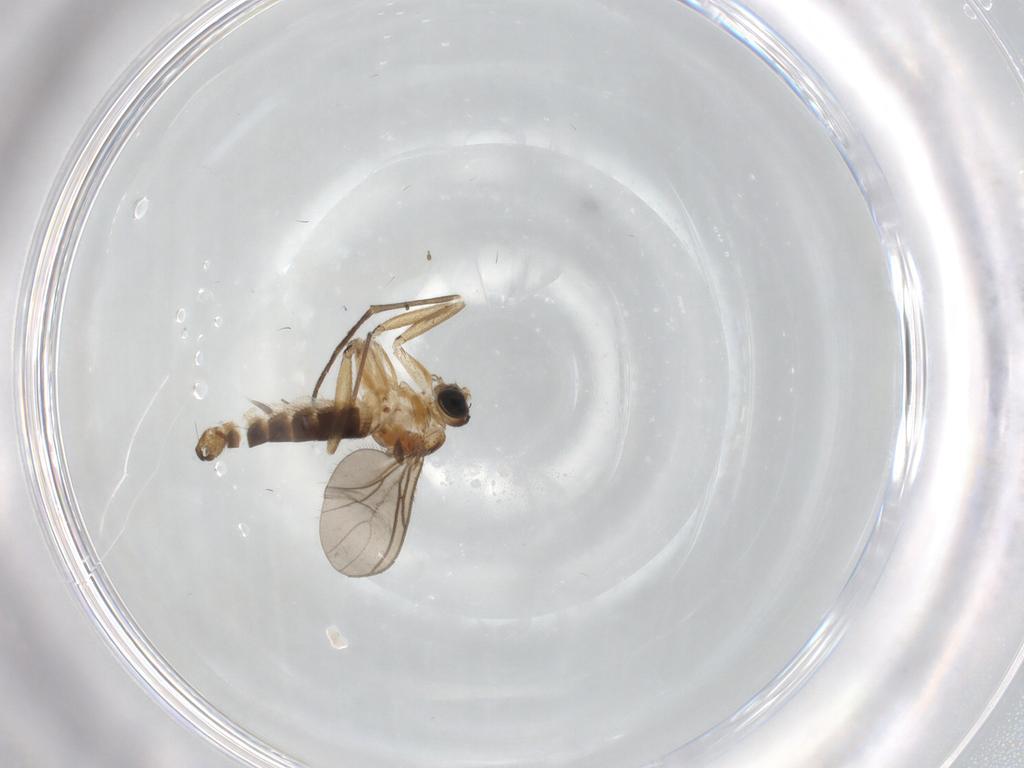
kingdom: Animalia
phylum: Arthropoda
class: Insecta
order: Diptera
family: Sciaridae
